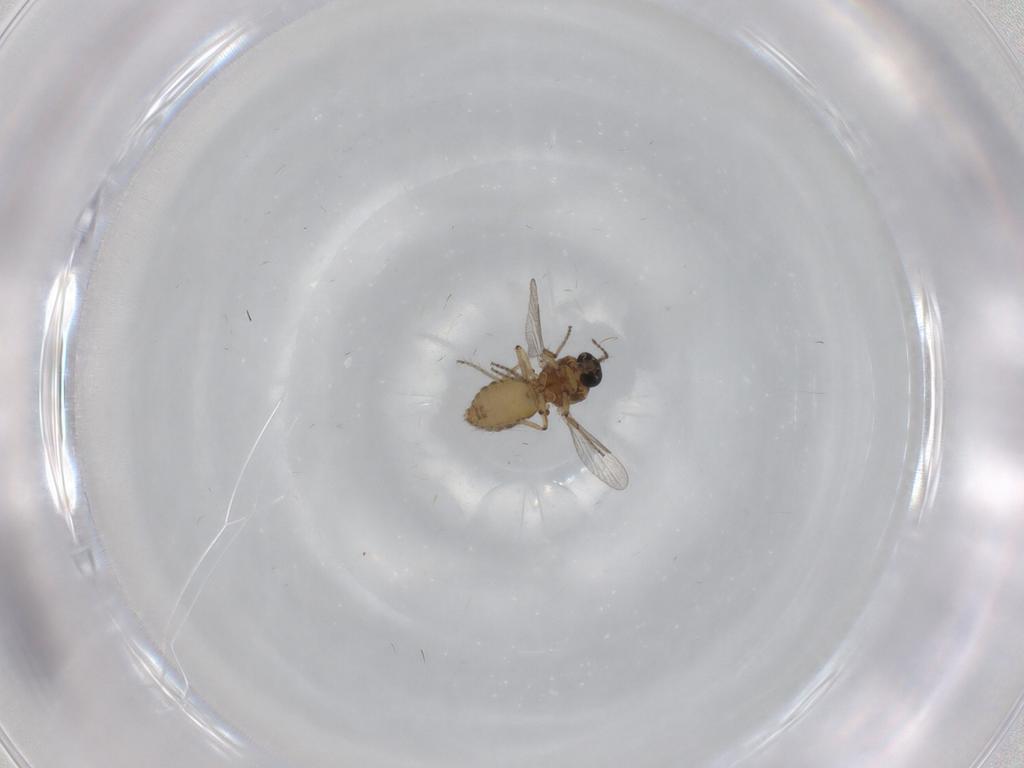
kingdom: Animalia
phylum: Arthropoda
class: Insecta
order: Diptera
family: Ceratopogonidae
